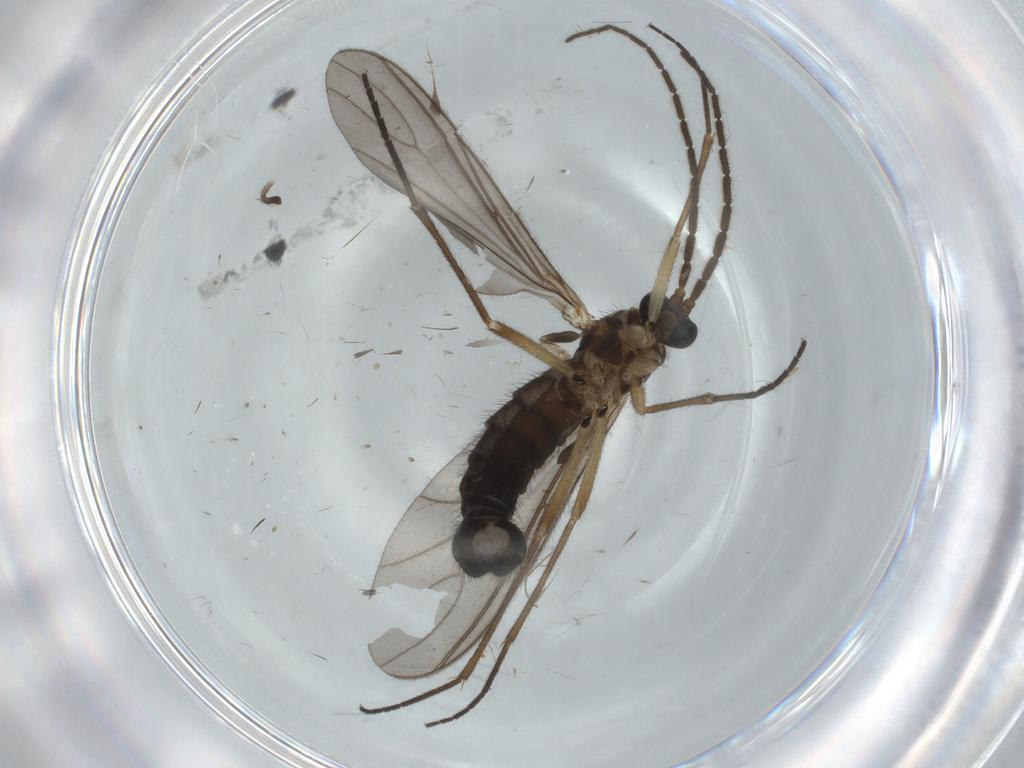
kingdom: Animalia
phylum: Arthropoda
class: Insecta
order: Diptera
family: Sciaridae
